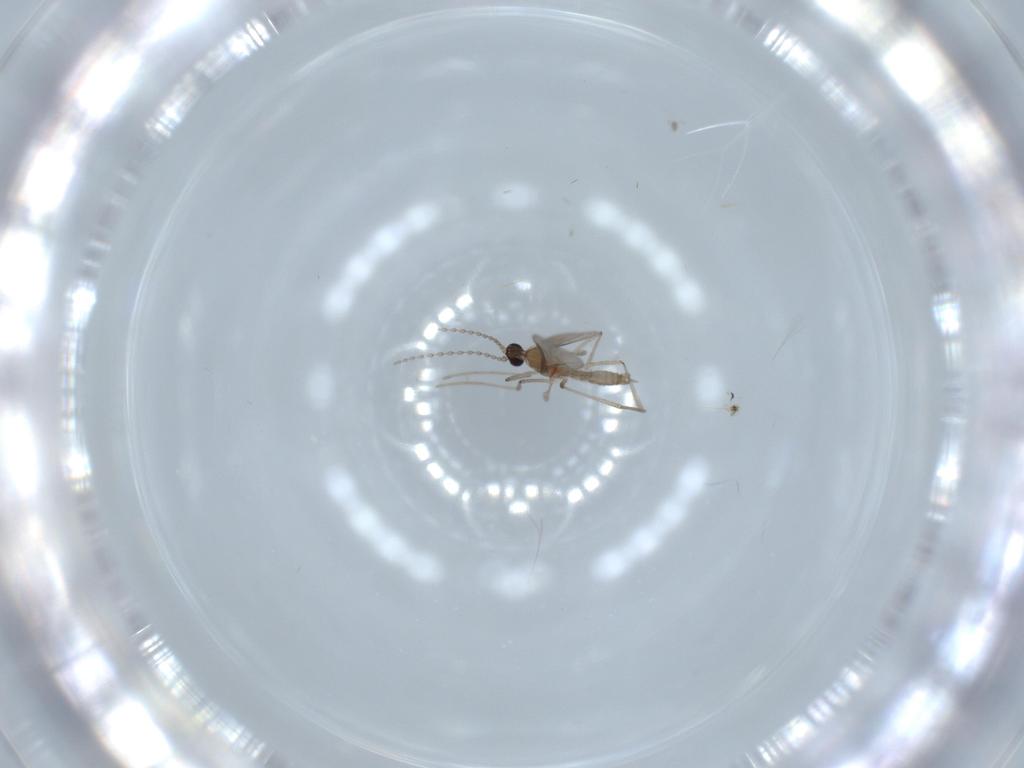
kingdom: Animalia
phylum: Arthropoda
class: Insecta
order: Diptera
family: Cecidomyiidae
